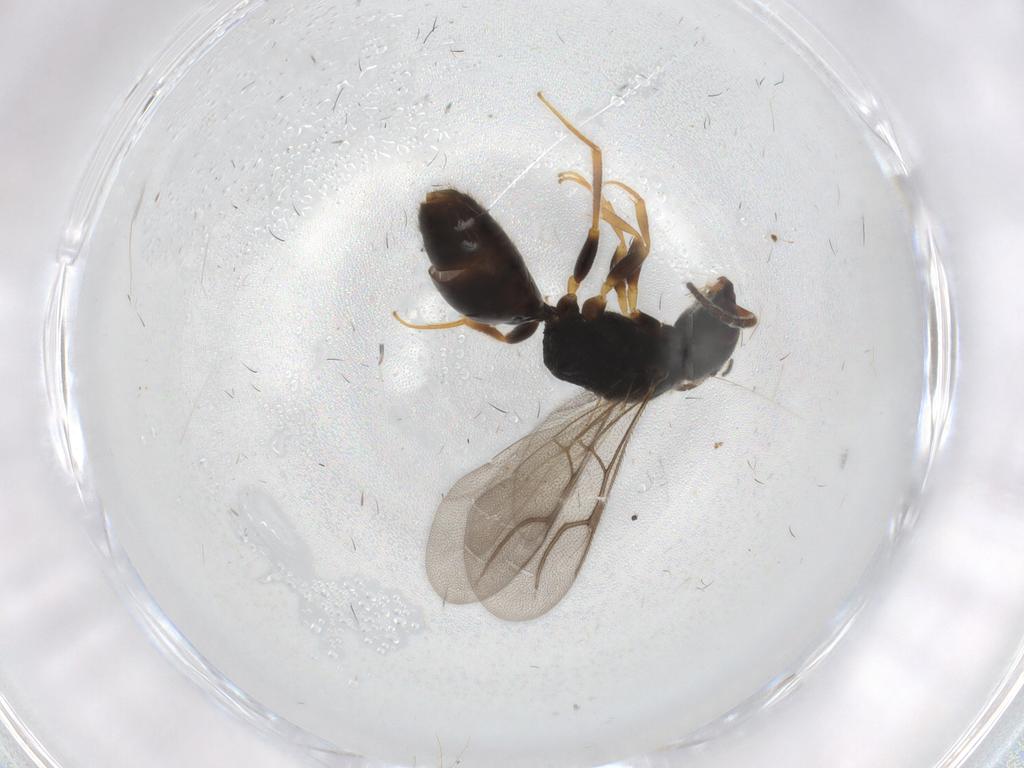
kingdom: Animalia
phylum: Arthropoda
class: Insecta
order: Hymenoptera
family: Bethylidae
